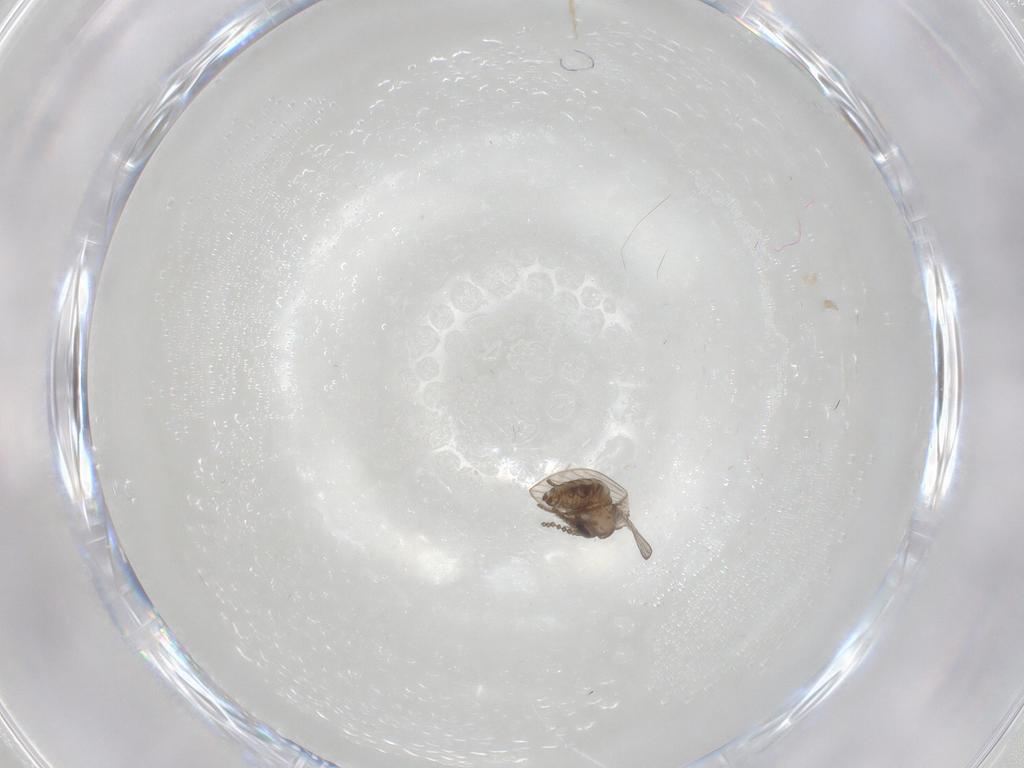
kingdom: Animalia
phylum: Arthropoda
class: Insecta
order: Diptera
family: Psychodidae
